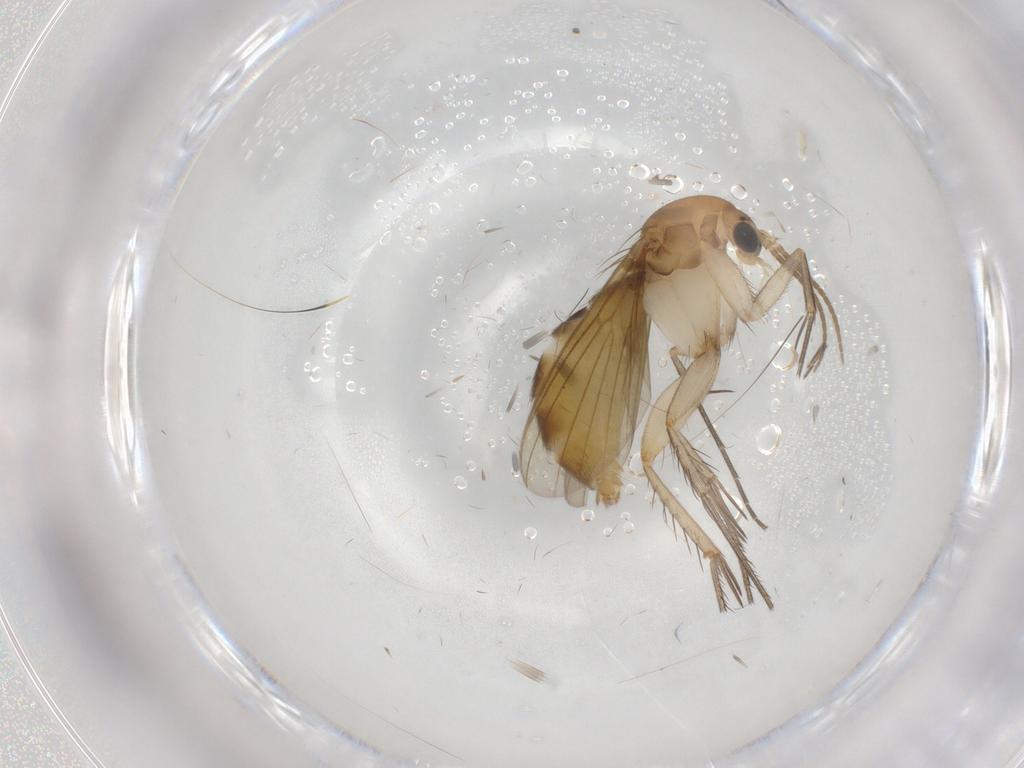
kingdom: Animalia
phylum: Arthropoda
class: Insecta
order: Diptera
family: Cecidomyiidae
